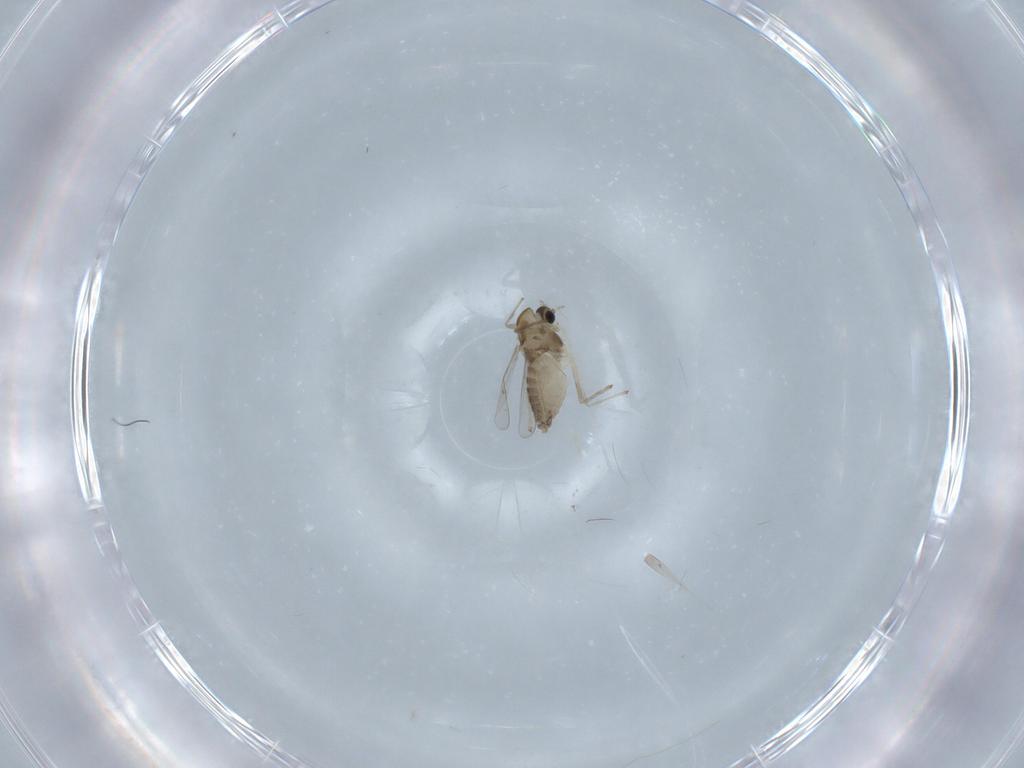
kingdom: Animalia
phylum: Arthropoda
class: Insecta
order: Diptera
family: Chironomidae
